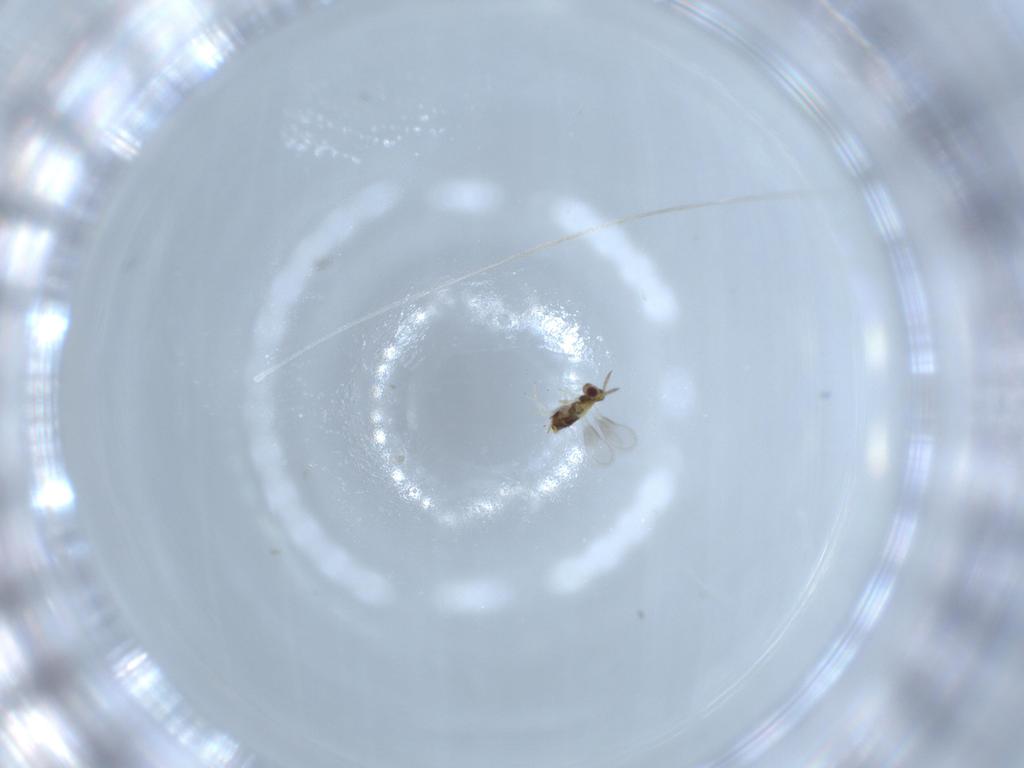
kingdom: Animalia
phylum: Arthropoda
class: Insecta
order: Hymenoptera
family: Aphelinidae
